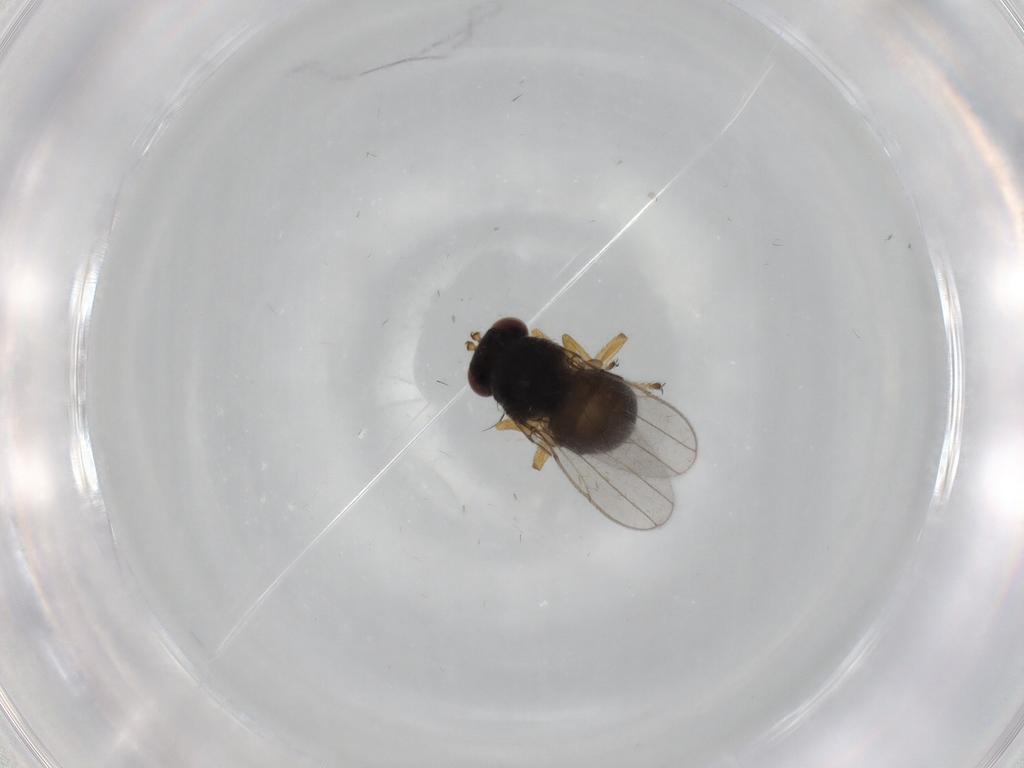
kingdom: Animalia
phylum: Arthropoda
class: Insecta
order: Diptera
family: Ephydridae
